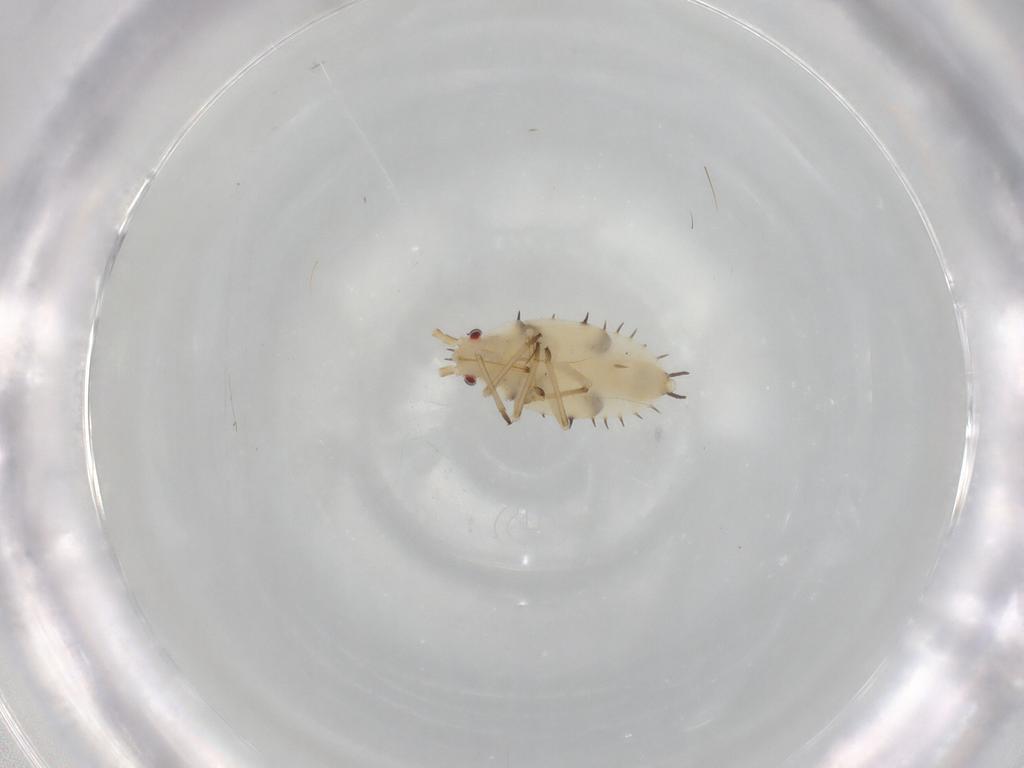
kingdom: Animalia
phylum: Arthropoda
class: Insecta
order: Hemiptera
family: Tingidae
